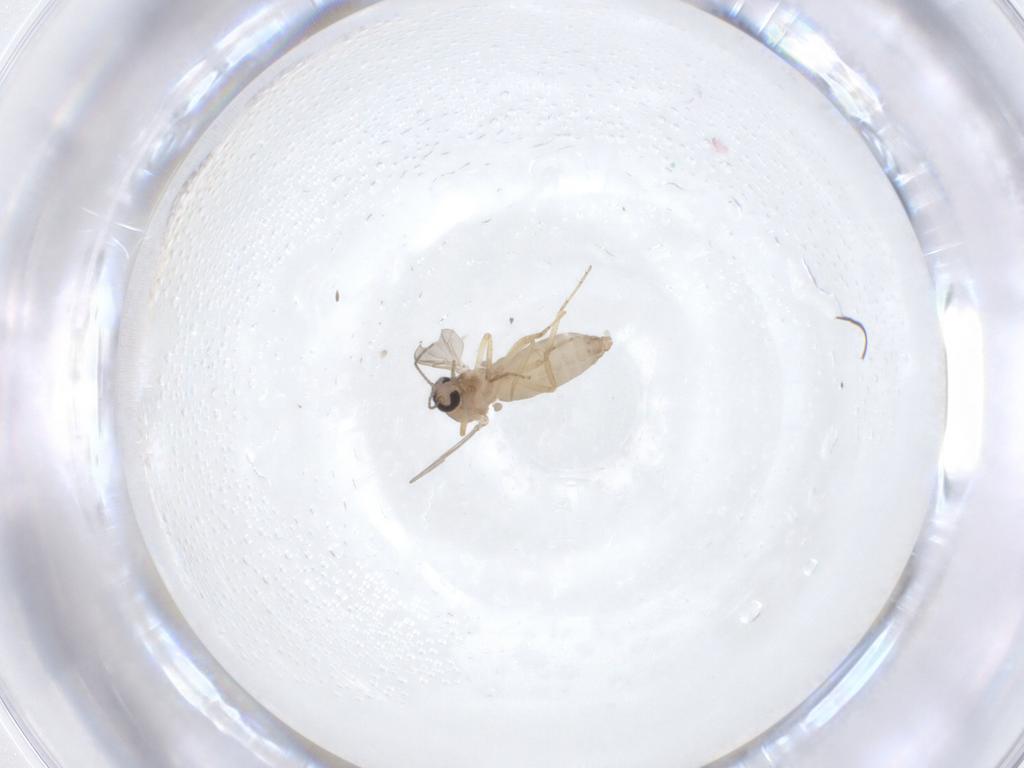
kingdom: Animalia
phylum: Arthropoda
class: Insecta
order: Diptera
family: Ceratopogonidae
